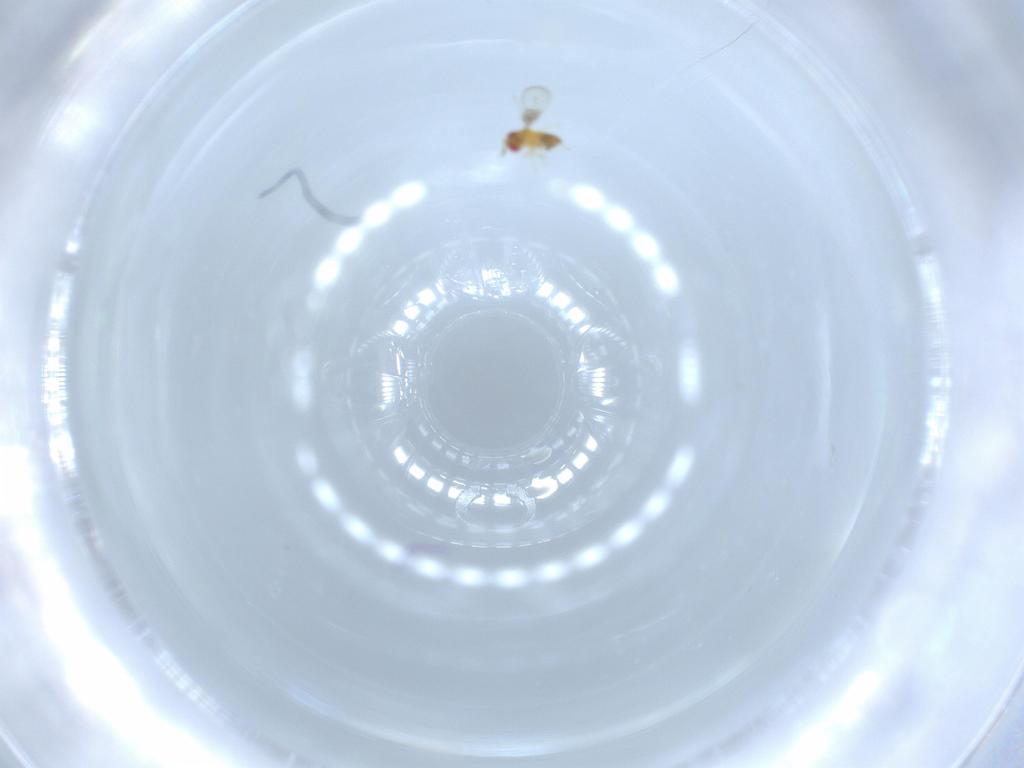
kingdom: Animalia
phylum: Arthropoda
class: Insecta
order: Hymenoptera
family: Trichogrammatidae
